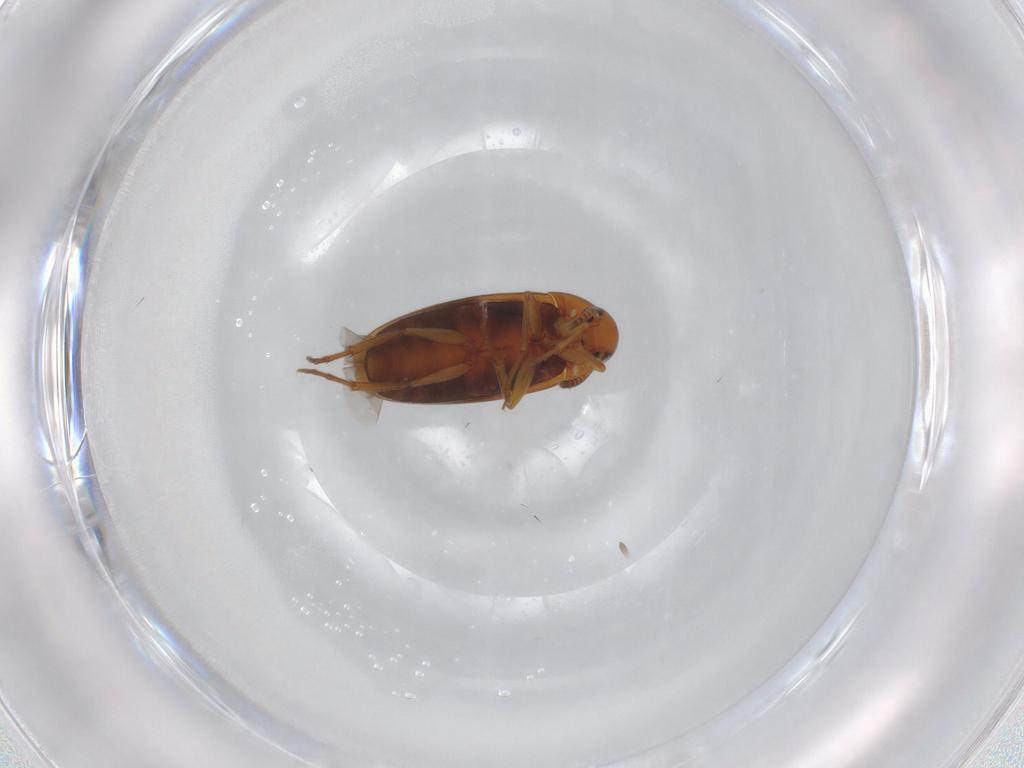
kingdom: Animalia
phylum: Arthropoda
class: Insecta
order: Coleoptera
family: Scraptiidae
